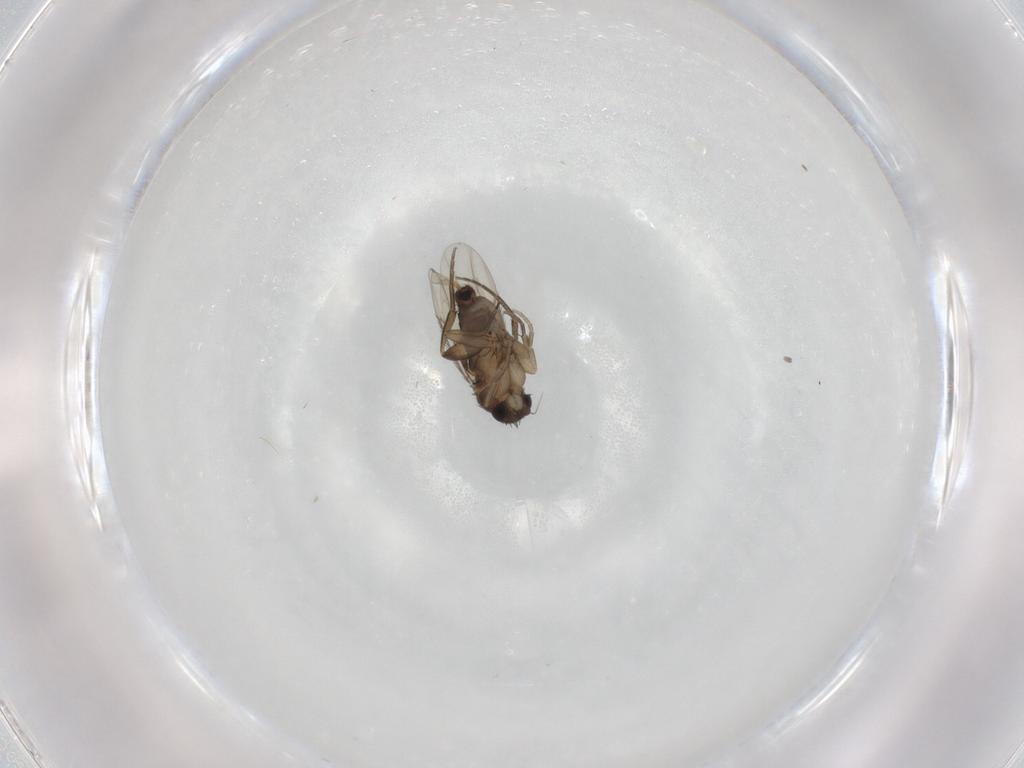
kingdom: Animalia
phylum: Arthropoda
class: Insecta
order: Diptera
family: Phoridae
